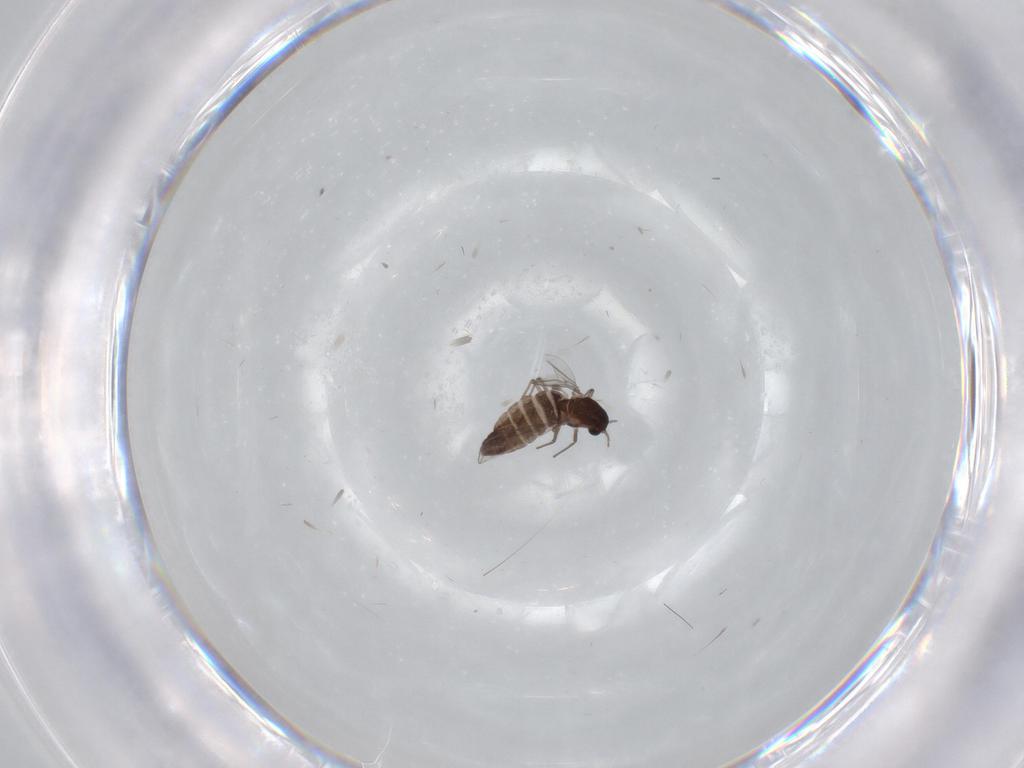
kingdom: Animalia
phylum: Arthropoda
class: Insecta
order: Diptera
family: Chironomidae
